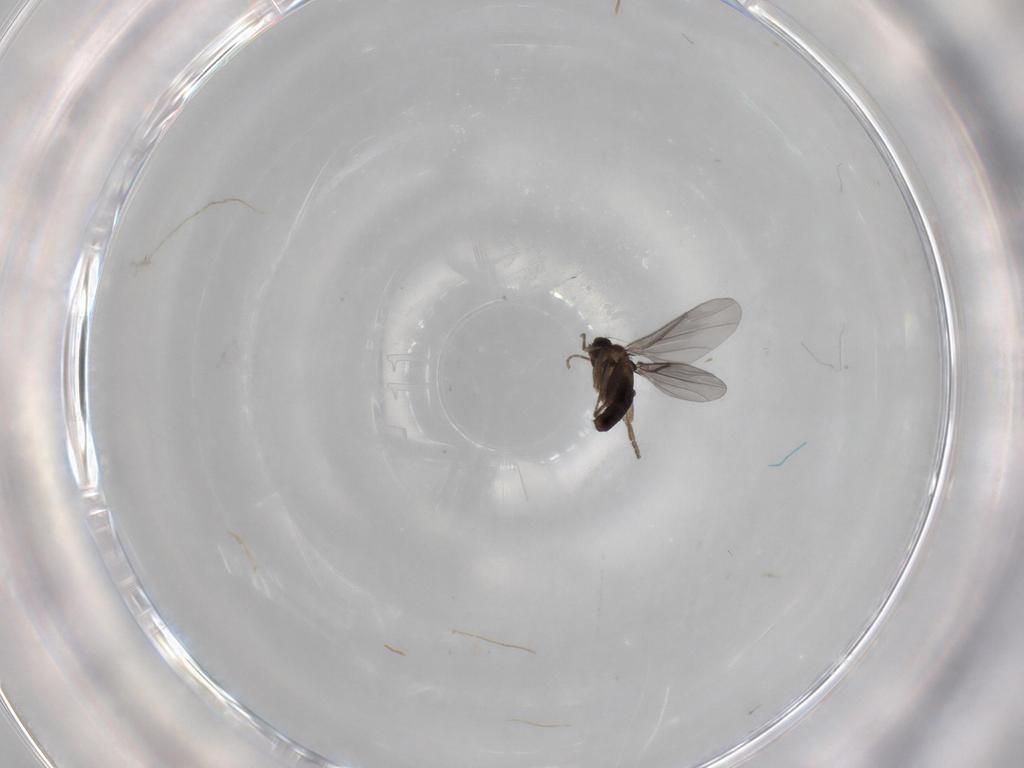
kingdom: Animalia
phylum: Arthropoda
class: Insecta
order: Diptera
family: Phoridae
